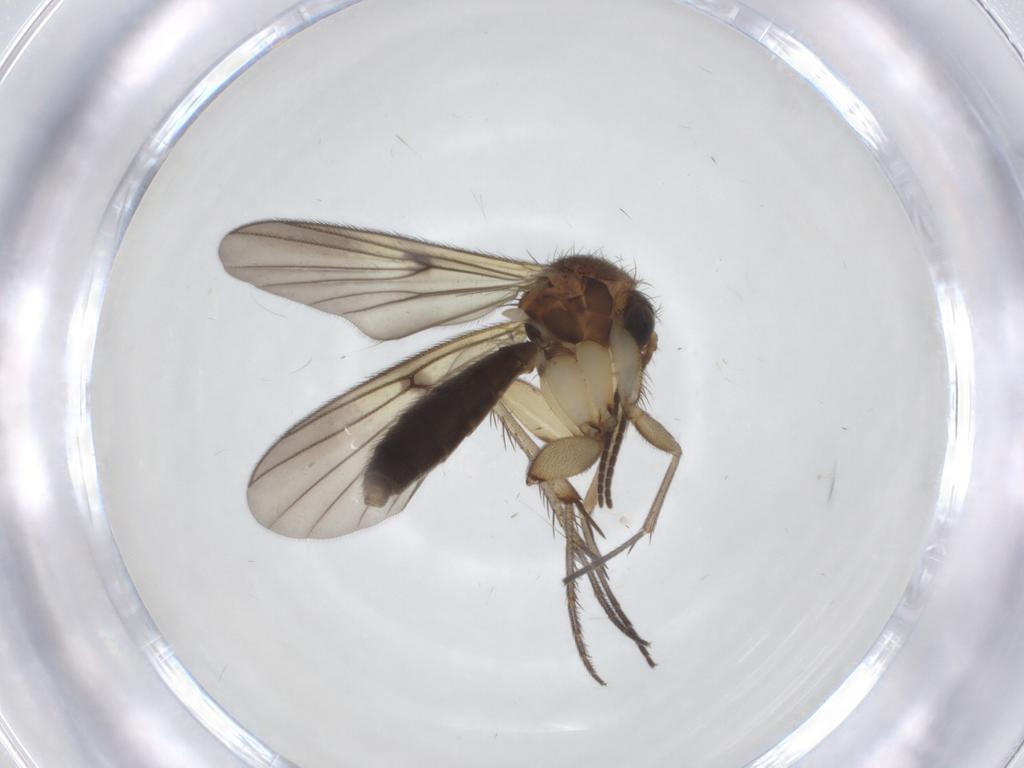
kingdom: Animalia
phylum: Arthropoda
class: Insecta
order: Diptera
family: Mycetophilidae
